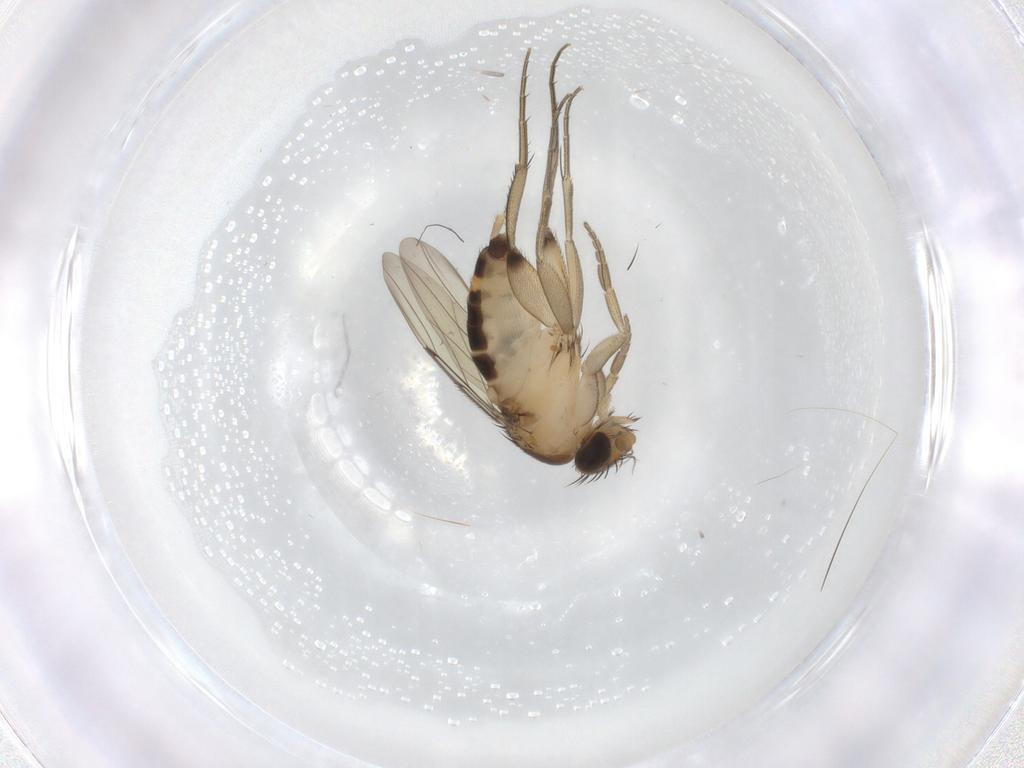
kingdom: Animalia
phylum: Arthropoda
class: Insecta
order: Diptera
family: Phoridae
